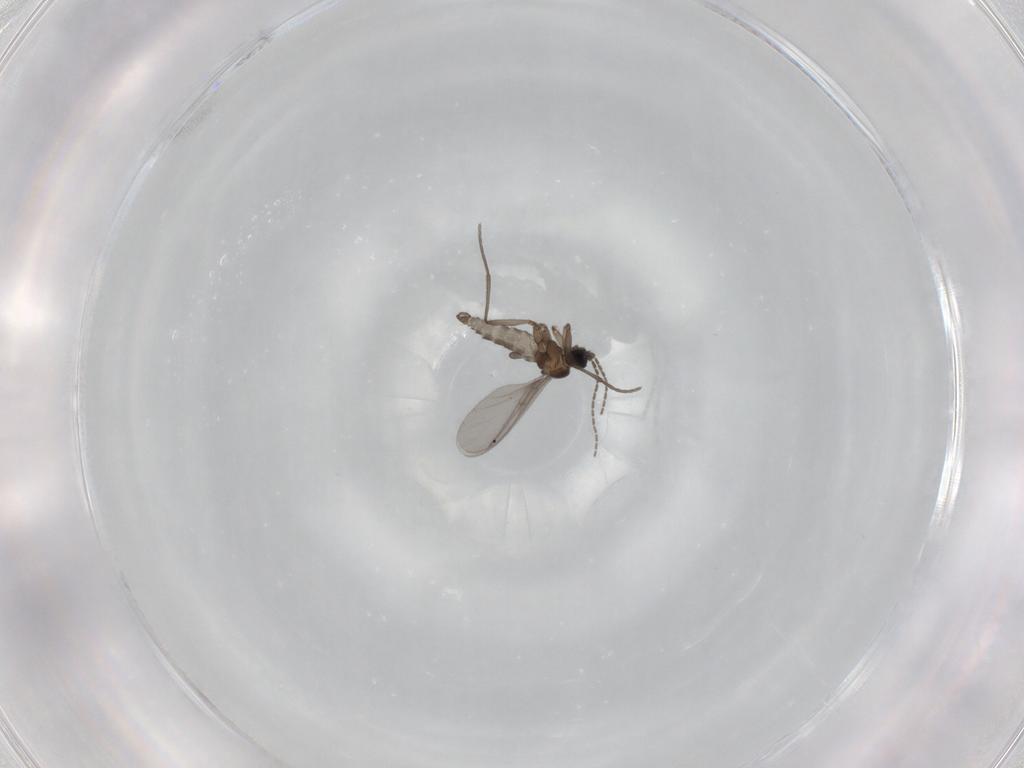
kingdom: Animalia
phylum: Arthropoda
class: Insecta
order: Diptera
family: Sciaridae
